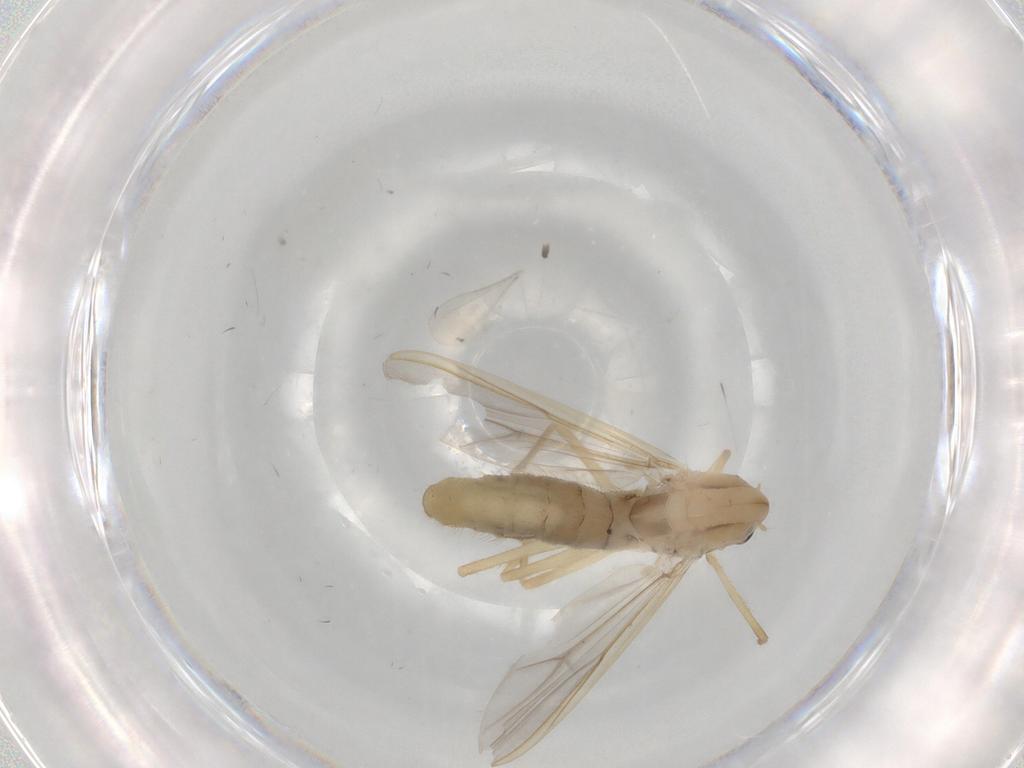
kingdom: Animalia
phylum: Arthropoda
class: Insecta
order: Diptera
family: Chironomidae
